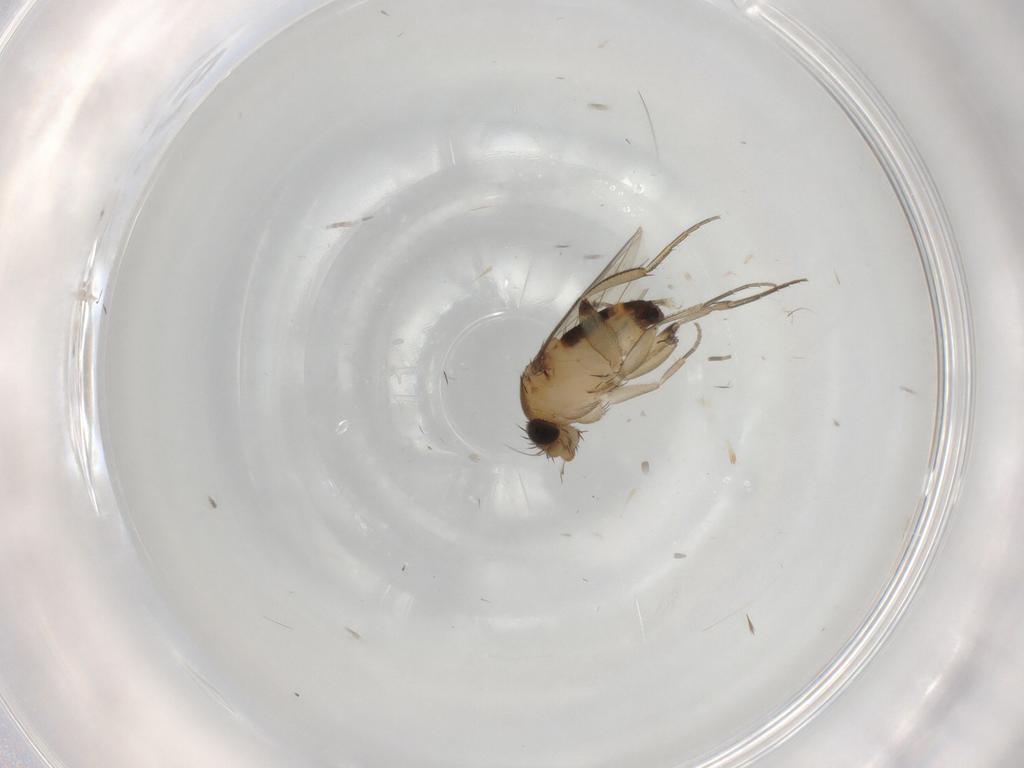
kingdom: Animalia
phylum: Arthropoda
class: Insecta
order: Diptera
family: Phoridae
